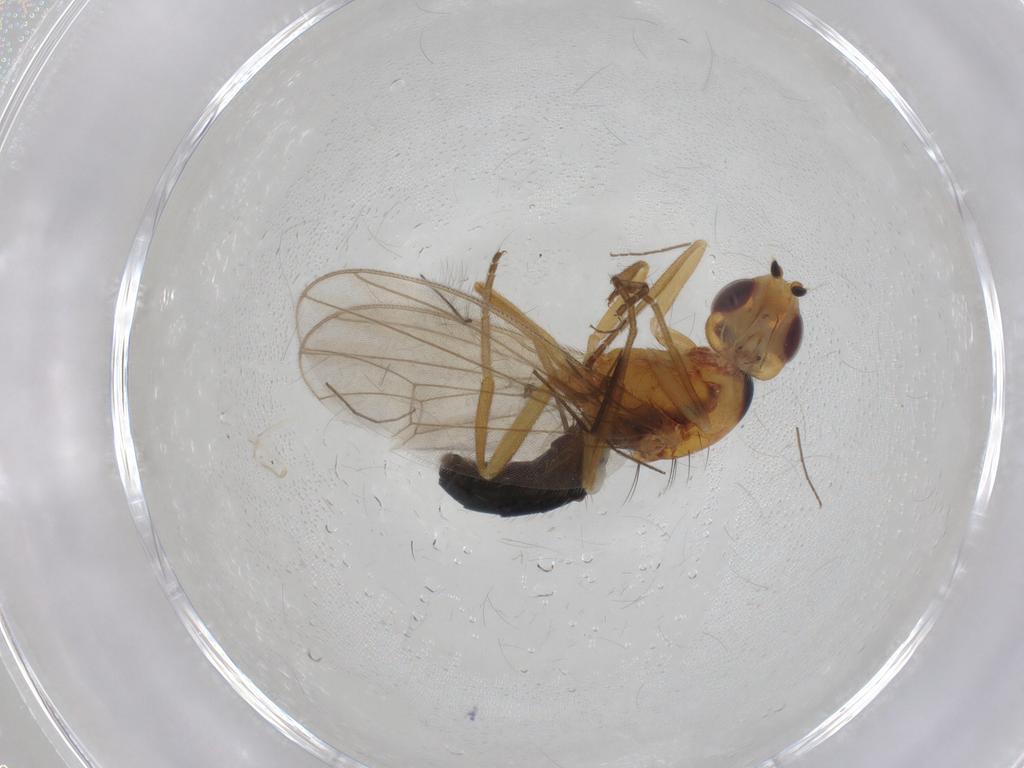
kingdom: Animalia
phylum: Arthropoda
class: Insecta
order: Diptera
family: Chironomidae
